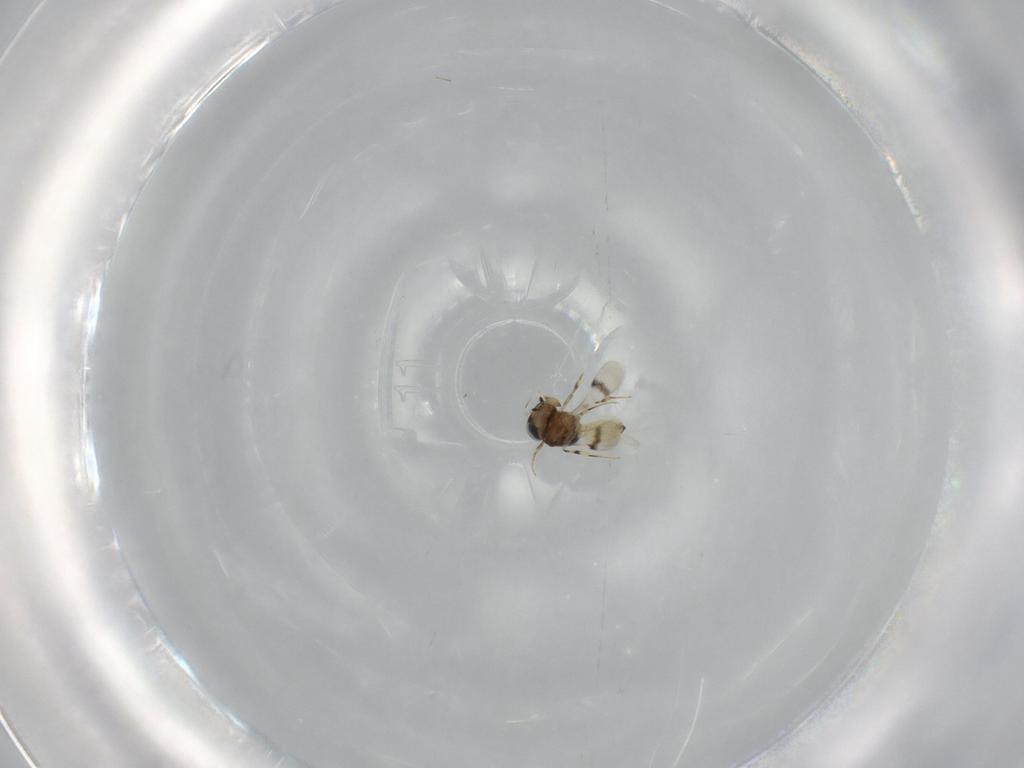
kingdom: Animalia
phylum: Arthropoda
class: Insecta
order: Hymenoptera
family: Scelionidae
